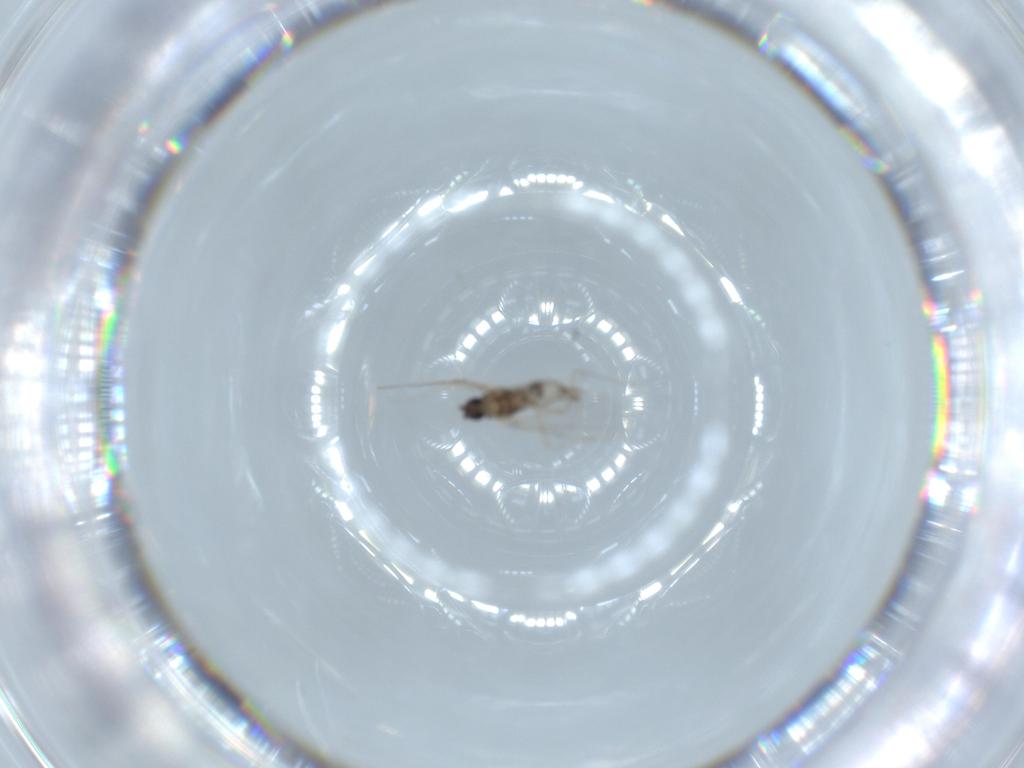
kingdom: Animalia
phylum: Arthropoda
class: Insecta
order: Diptera
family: Cecidomyiidae
